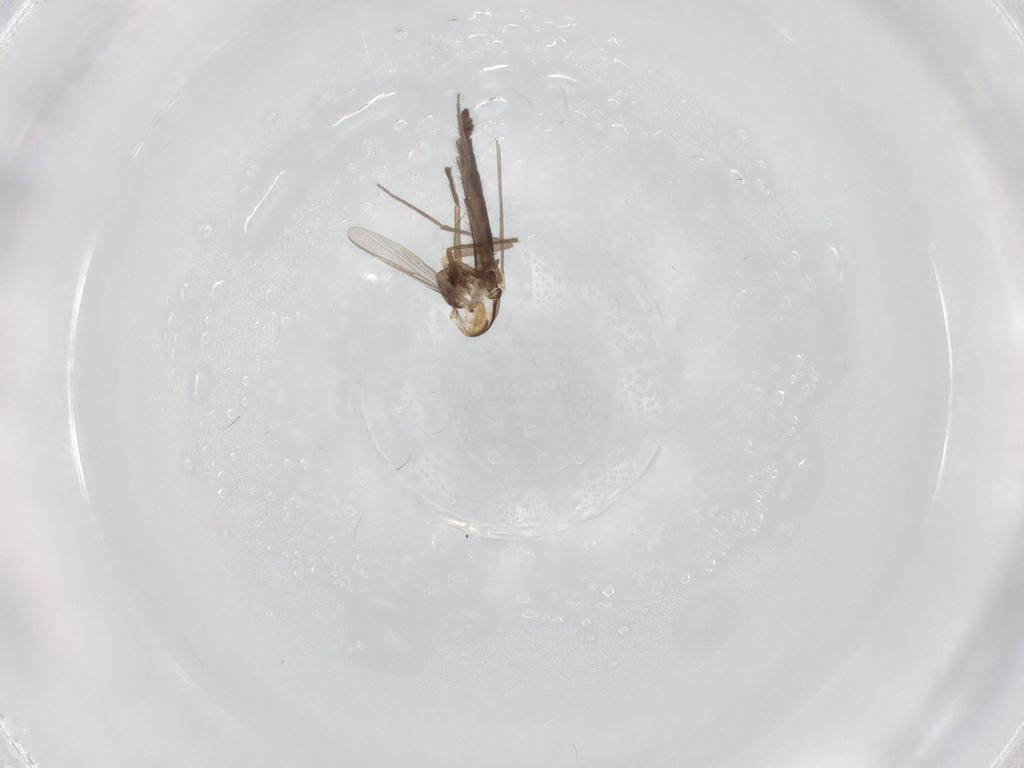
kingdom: Animalia
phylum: Arthropoda
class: Insecta
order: Diptera
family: Chironomidae
